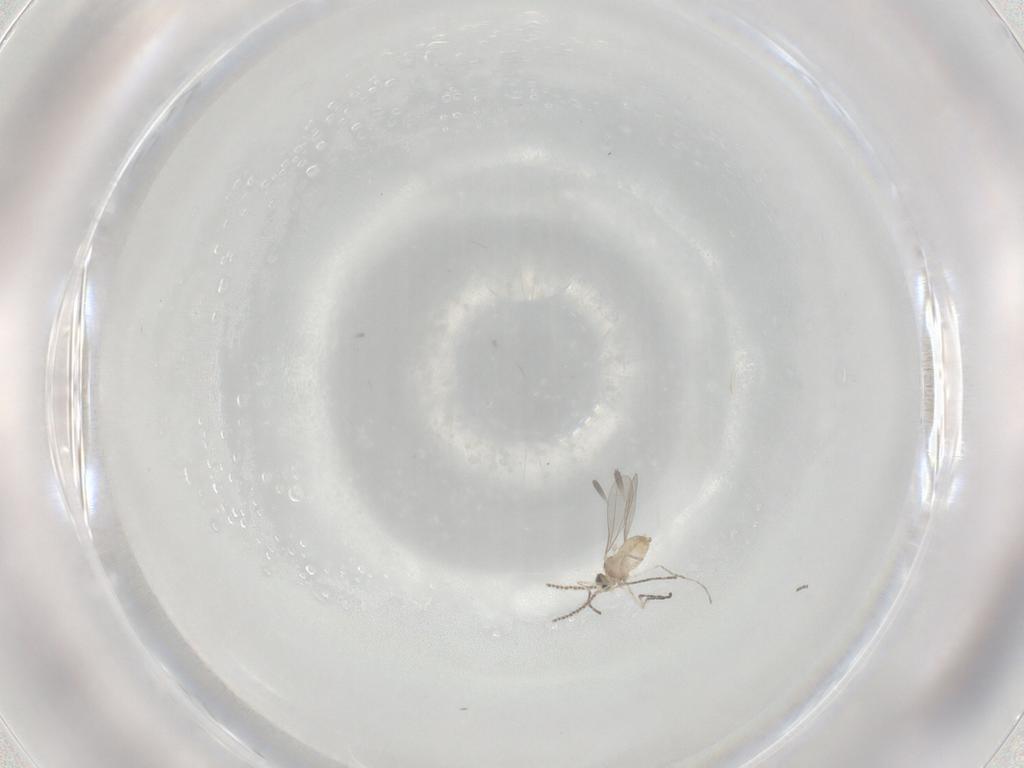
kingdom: Animalia
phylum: Arthropoda
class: Insecta
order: Diptera
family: Cecidomyiidae
